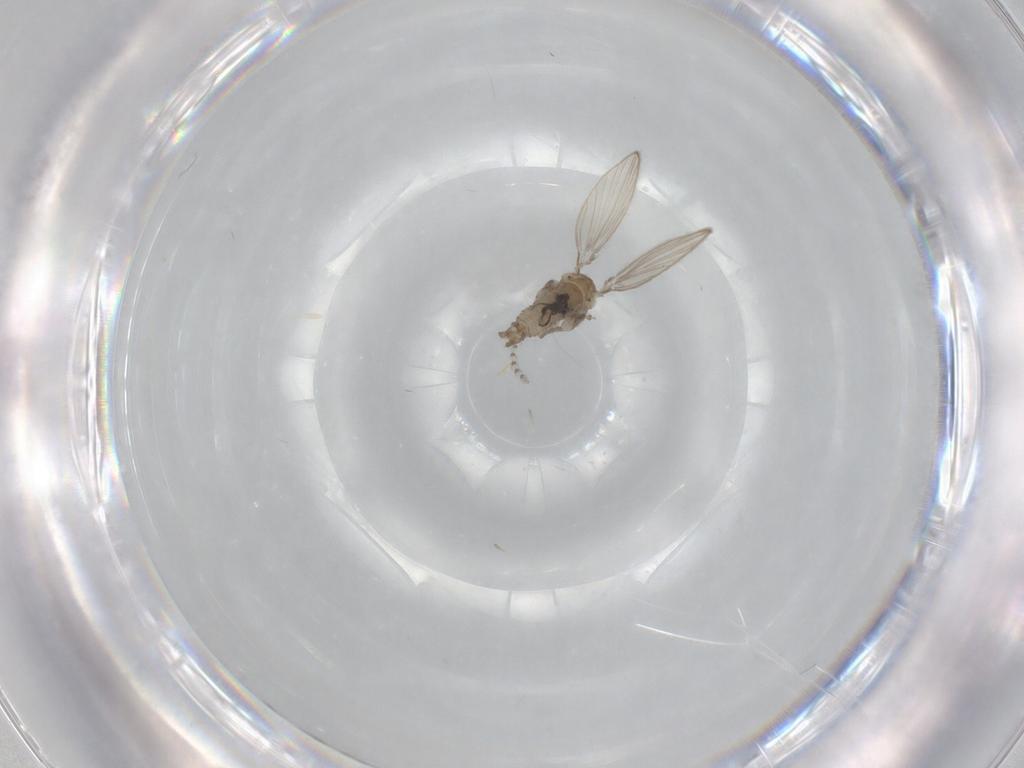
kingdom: Animalia
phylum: Arthropoda
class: Insecta
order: Diptera
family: Psychodidae
